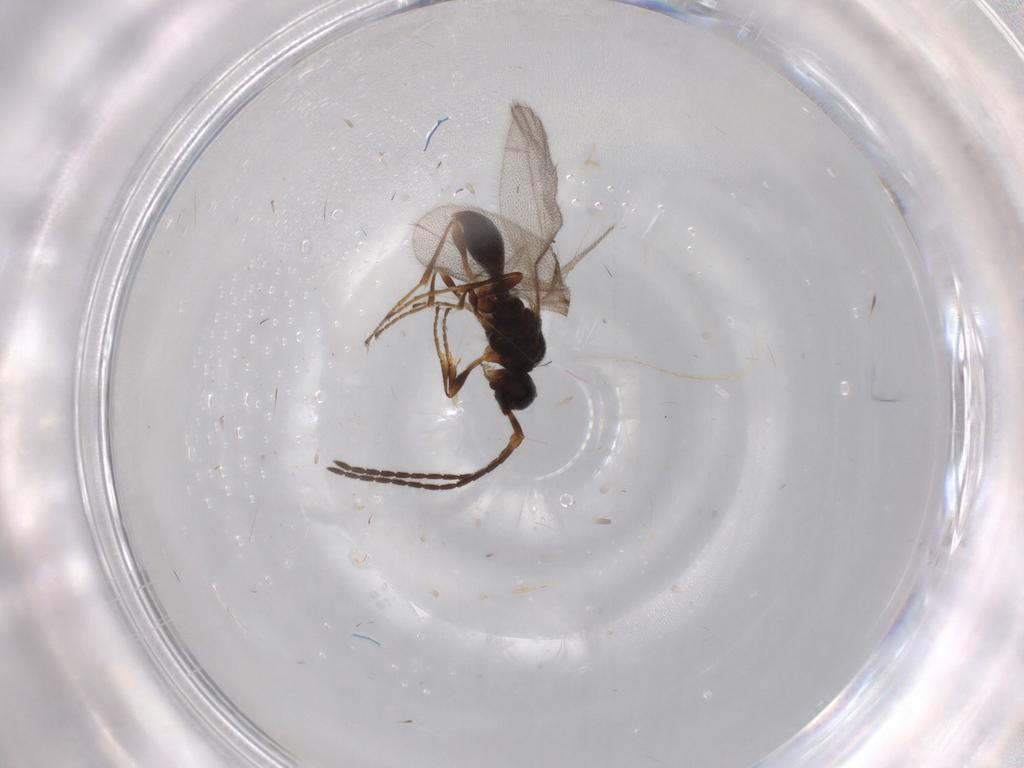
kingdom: Animalia
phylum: Arthropoda
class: Insecta
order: Hymenoptera
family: Diapriidae
